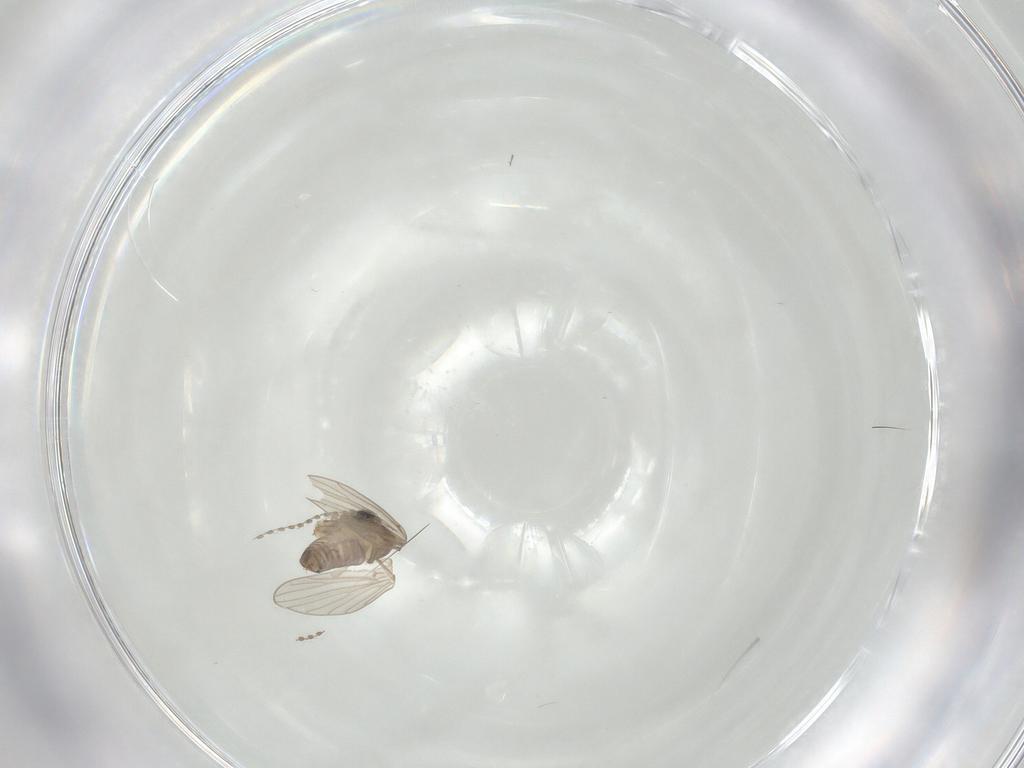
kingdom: Animalia
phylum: Arthropoda
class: Insecta
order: Diptera
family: Psychodidae
